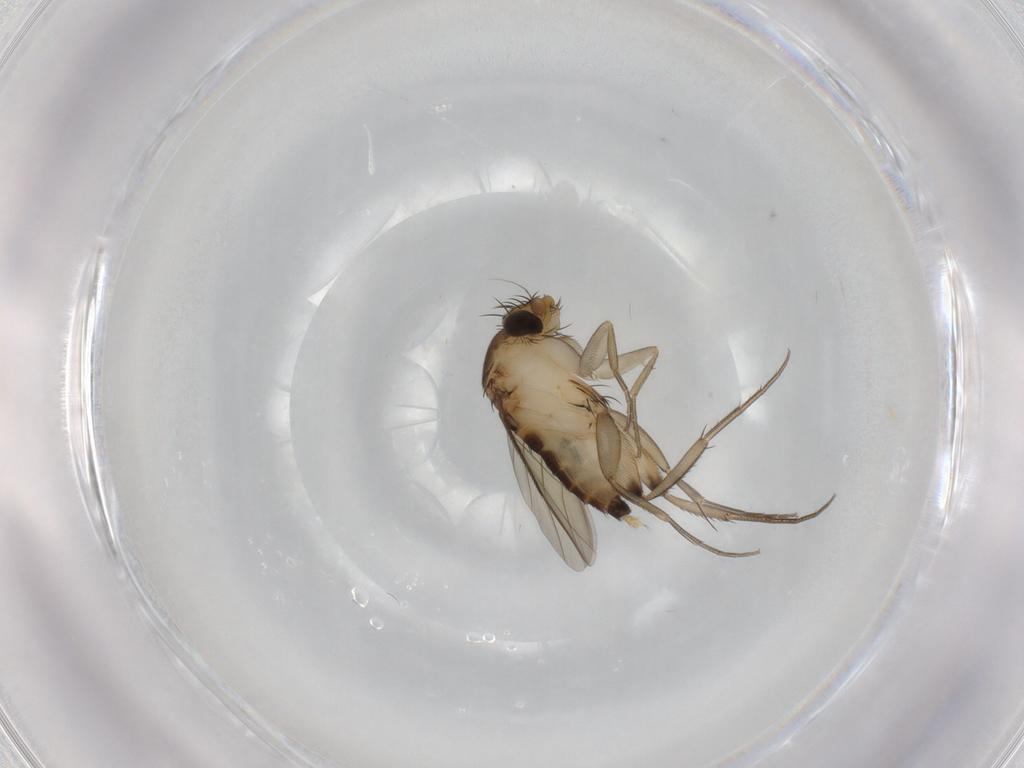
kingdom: Animalia
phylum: Arthropoda
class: Insecta
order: Diptera
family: Phoridae
